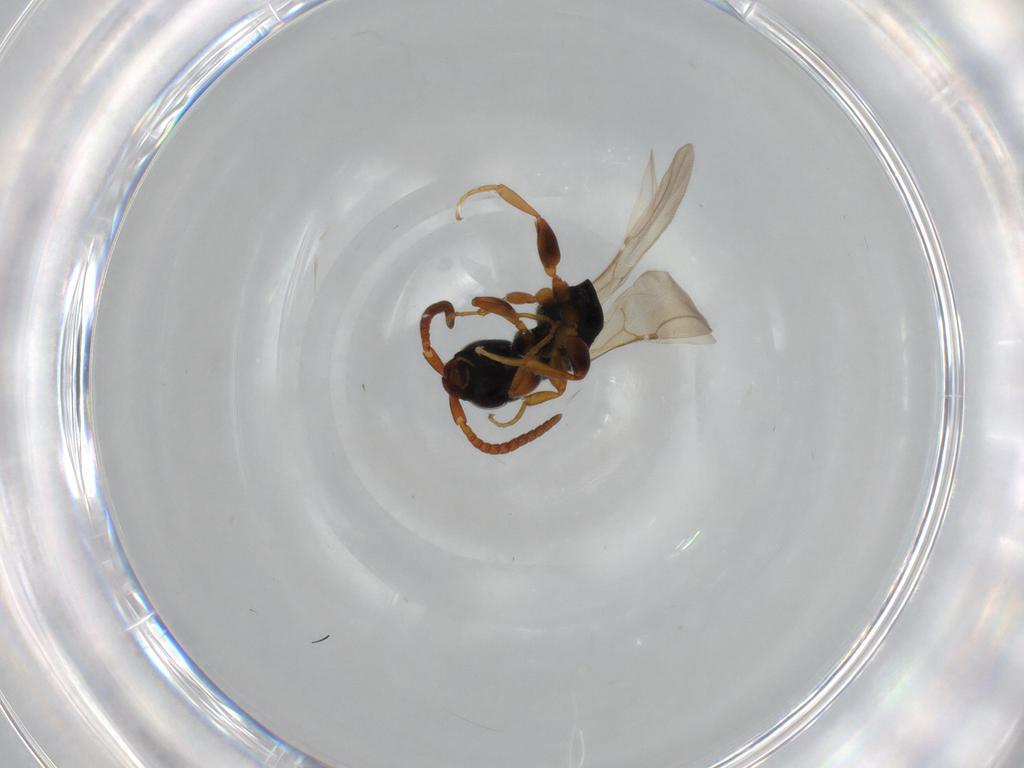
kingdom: Animalia
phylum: Arthropoda
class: Insecta
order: Hymenoptera
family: Bethylidae
